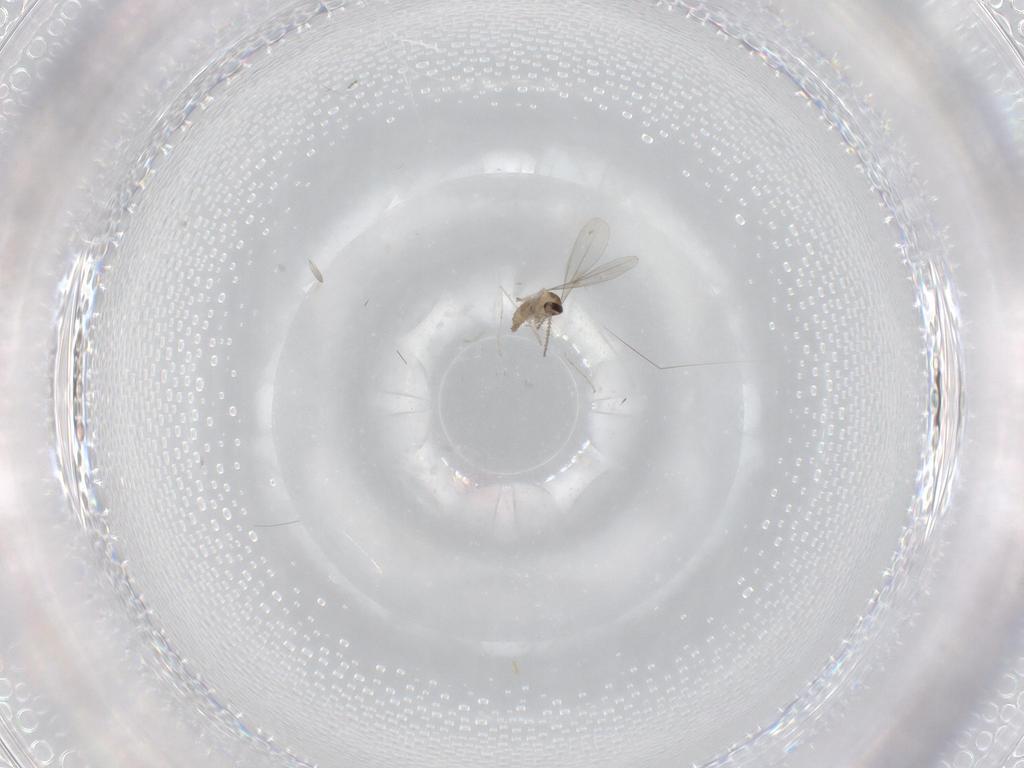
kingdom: Animalia
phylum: Arthropoda
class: Insecta
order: Diptera
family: Cecidomyiidae
